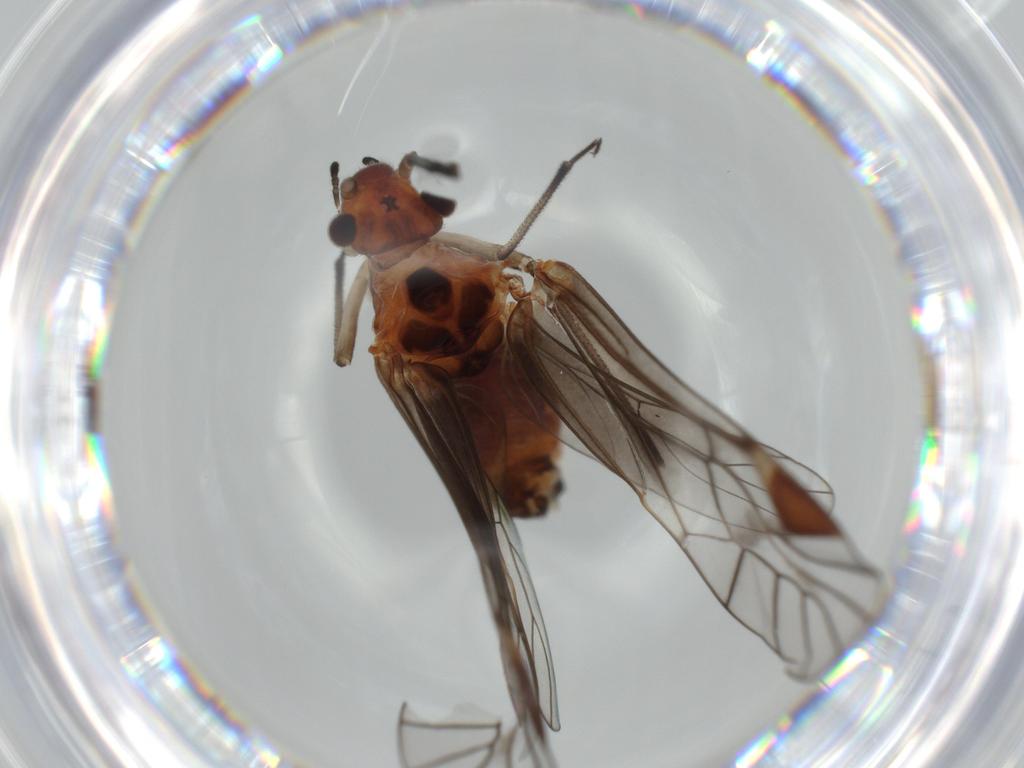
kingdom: Animalia
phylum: Arthropoda
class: Insecta
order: Psocodea
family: Lachesillidae
